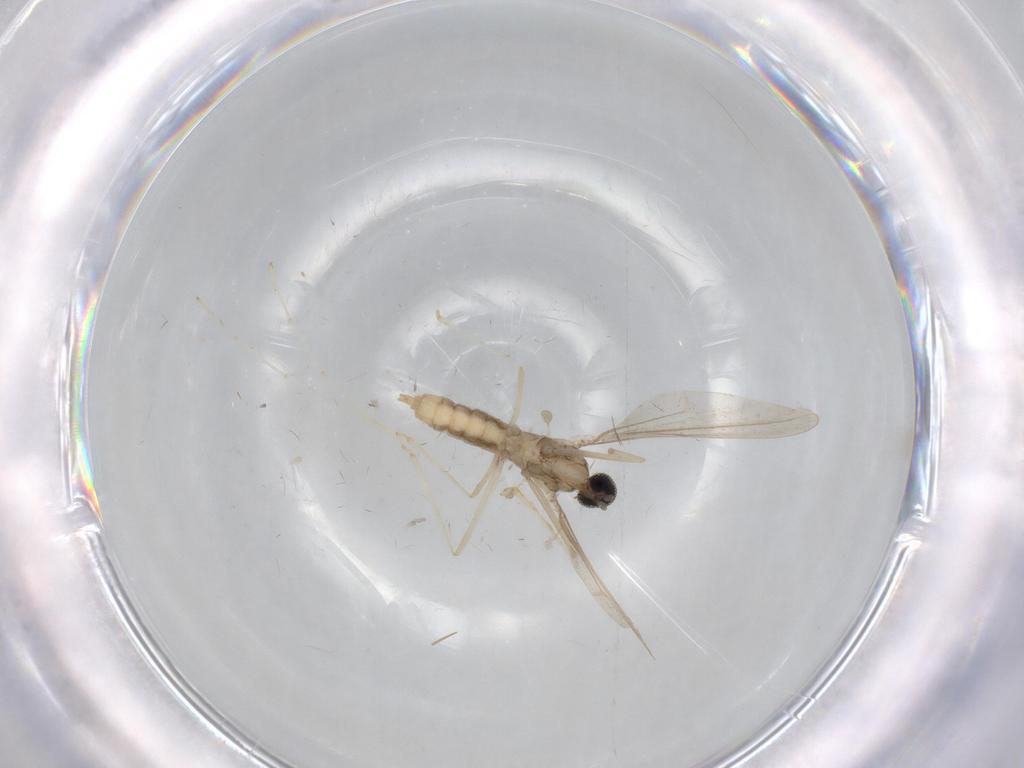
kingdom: Animalia
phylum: Arthropoda
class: Insecta
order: Diptera
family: Cecidomyiidae
